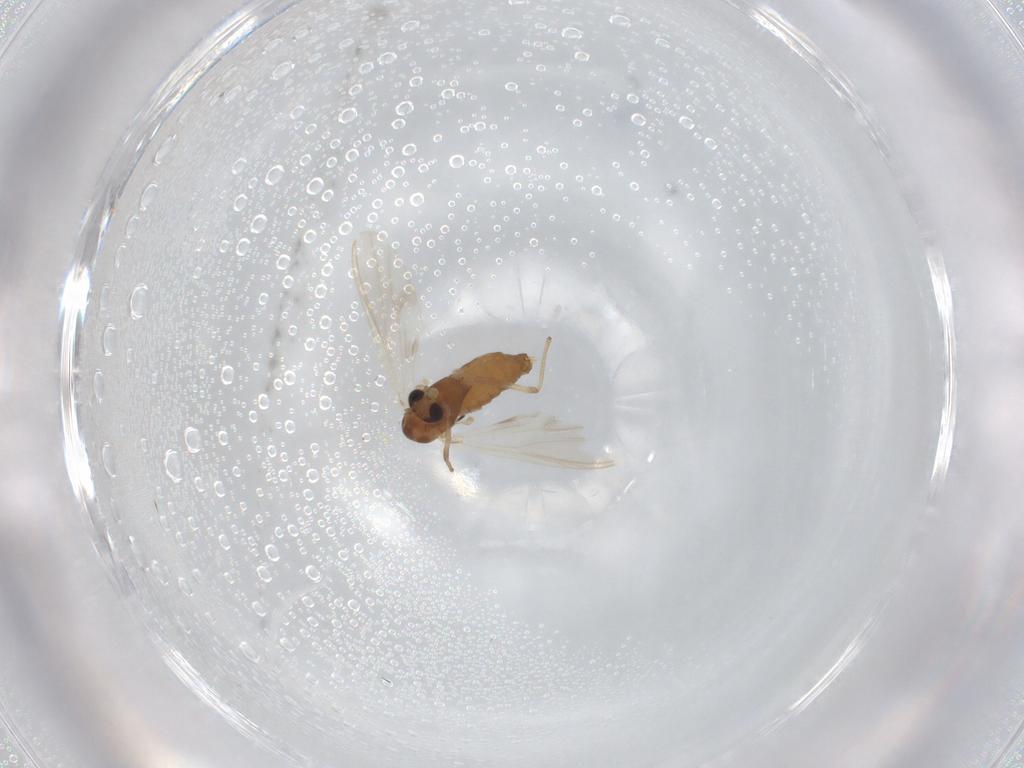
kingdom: Animalia
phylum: Arthropoda
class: Insecta
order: Diptera
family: Chironomidae
